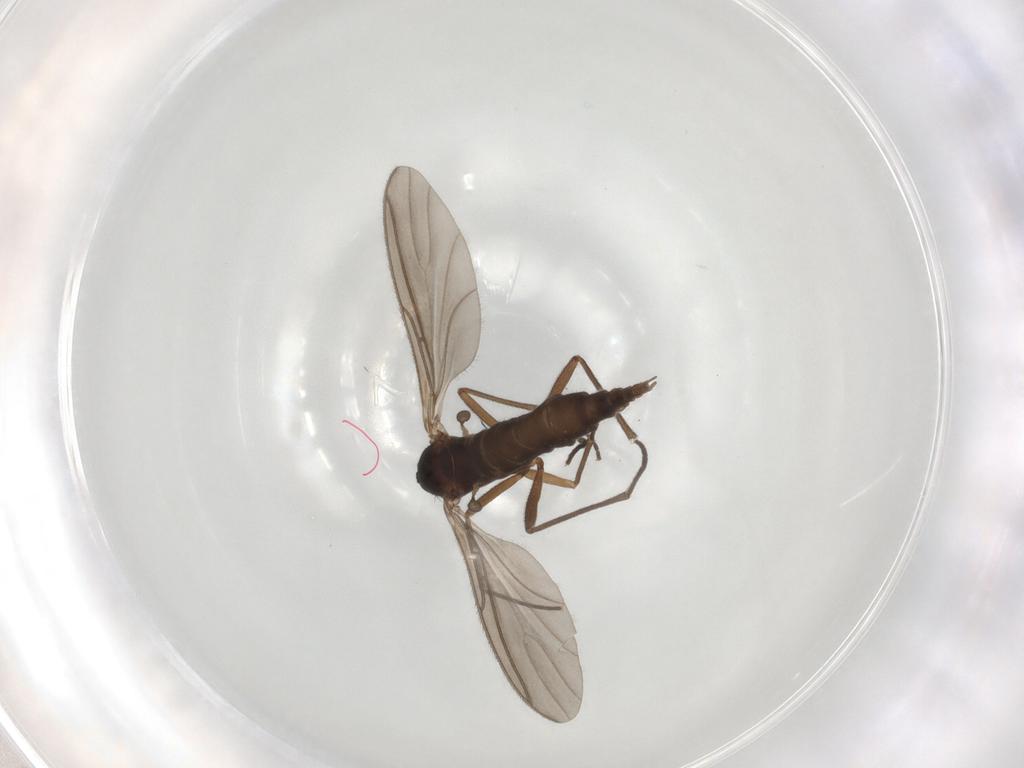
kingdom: Animalia
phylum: Arthropoda
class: Insecta
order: Diptera
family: Sciaridae
